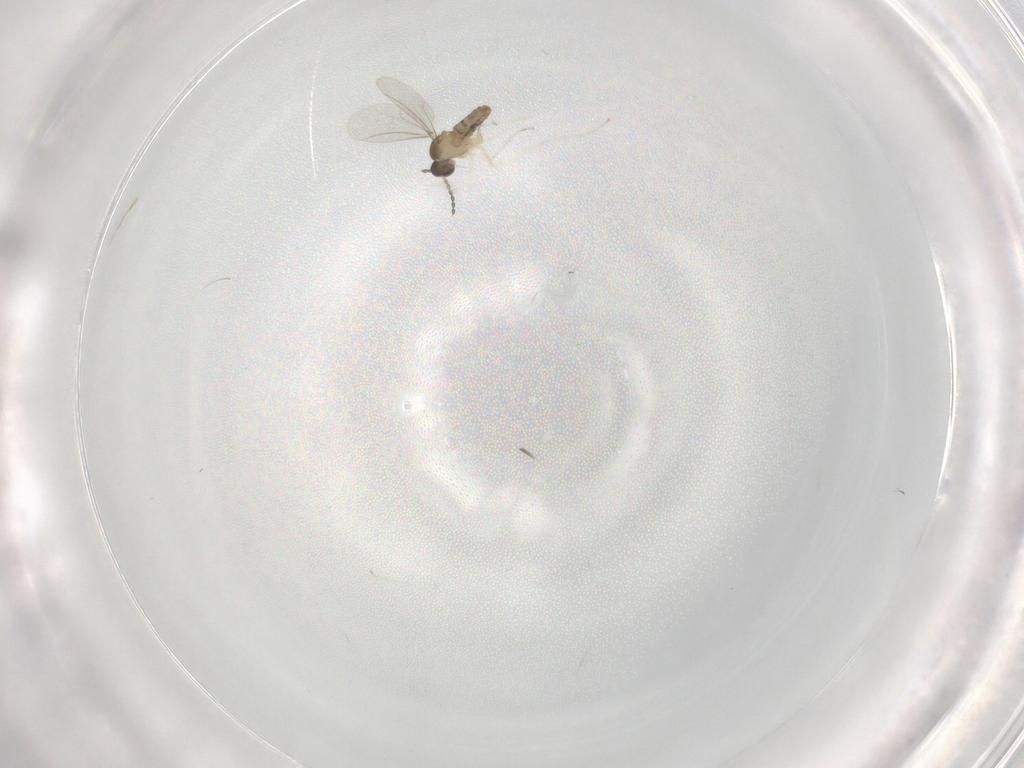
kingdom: Animalia
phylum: Arthropoda
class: Insecta
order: Diptera
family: Cecidomyiidae
